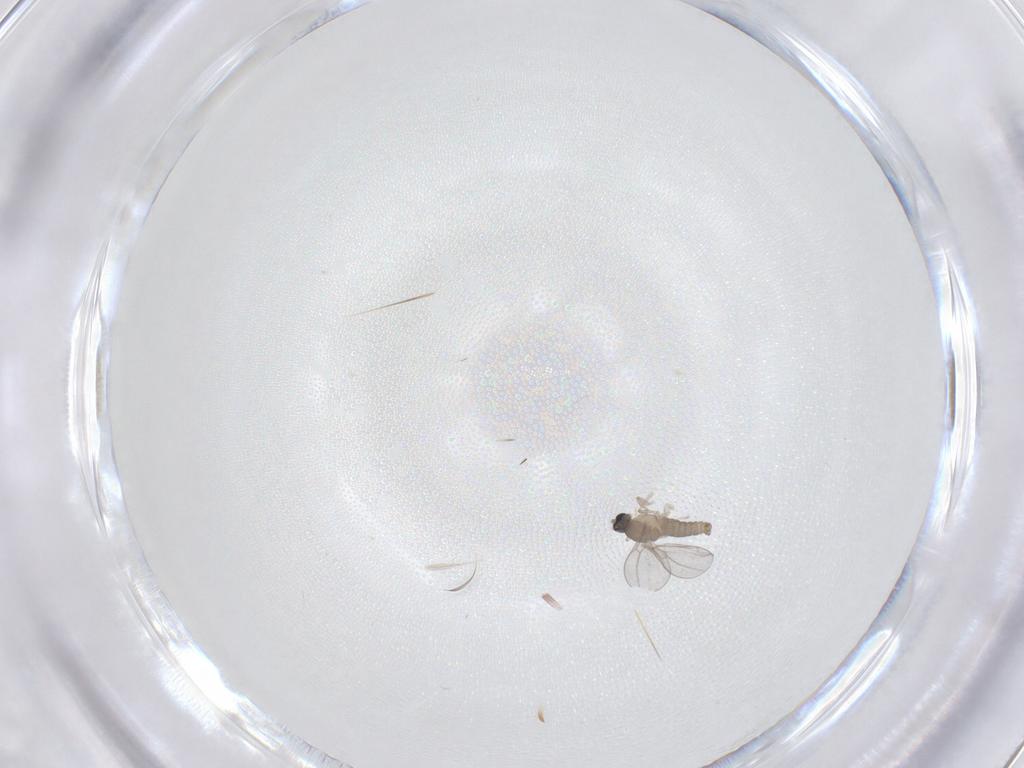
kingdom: Animalia
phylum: Arthropoda
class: Insecta
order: Diptera
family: Cecidomyiidae
